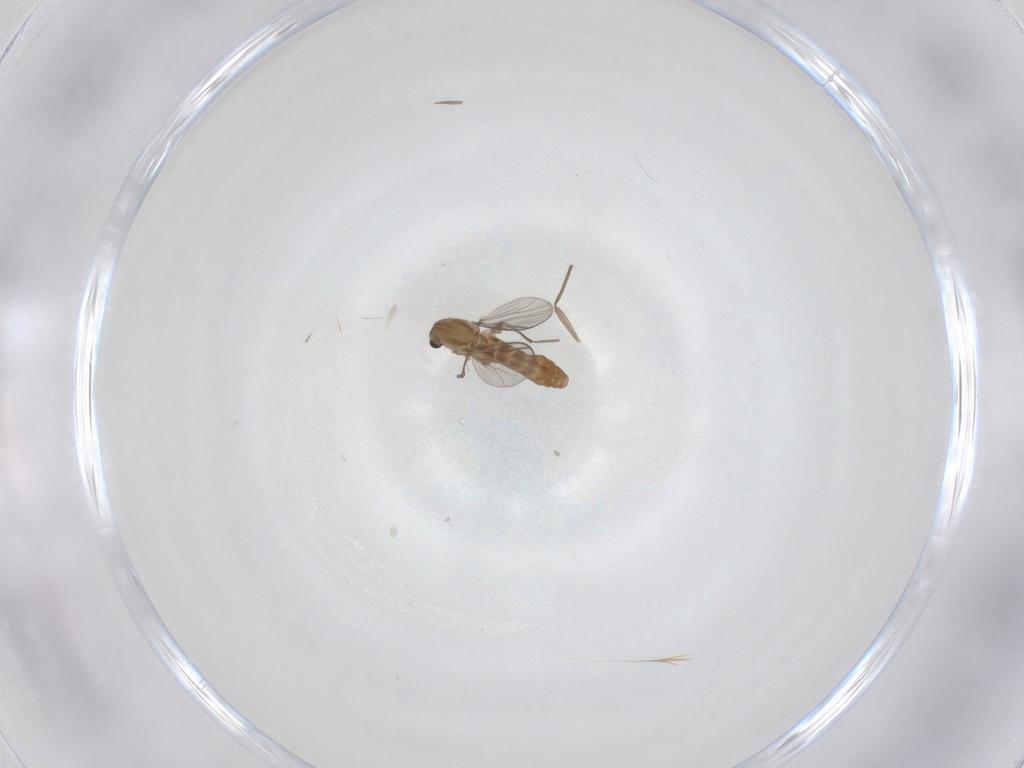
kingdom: Animalia
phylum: Arthropoda
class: Insecta
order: Diptera
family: Chironomidae
